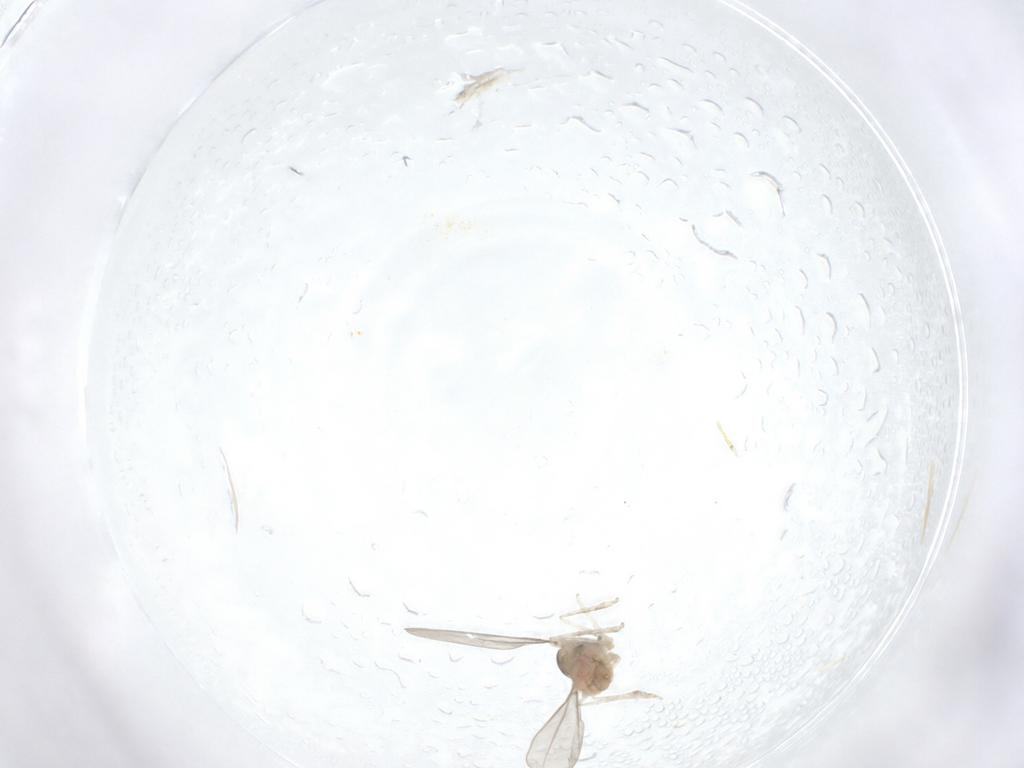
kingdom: Animalia
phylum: Arthropoda
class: Insecta
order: Diptera
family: Cecidomyiidae
